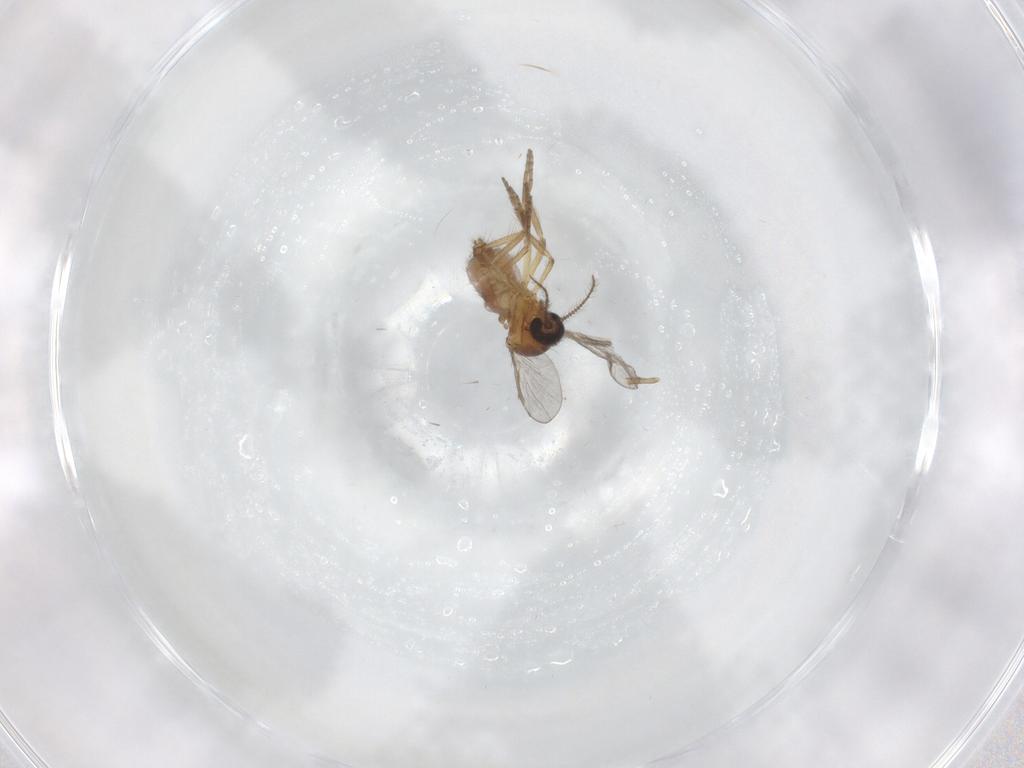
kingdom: Animalia
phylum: Arthropoda
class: Insecta
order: Diptera
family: Ceratopogonidae
